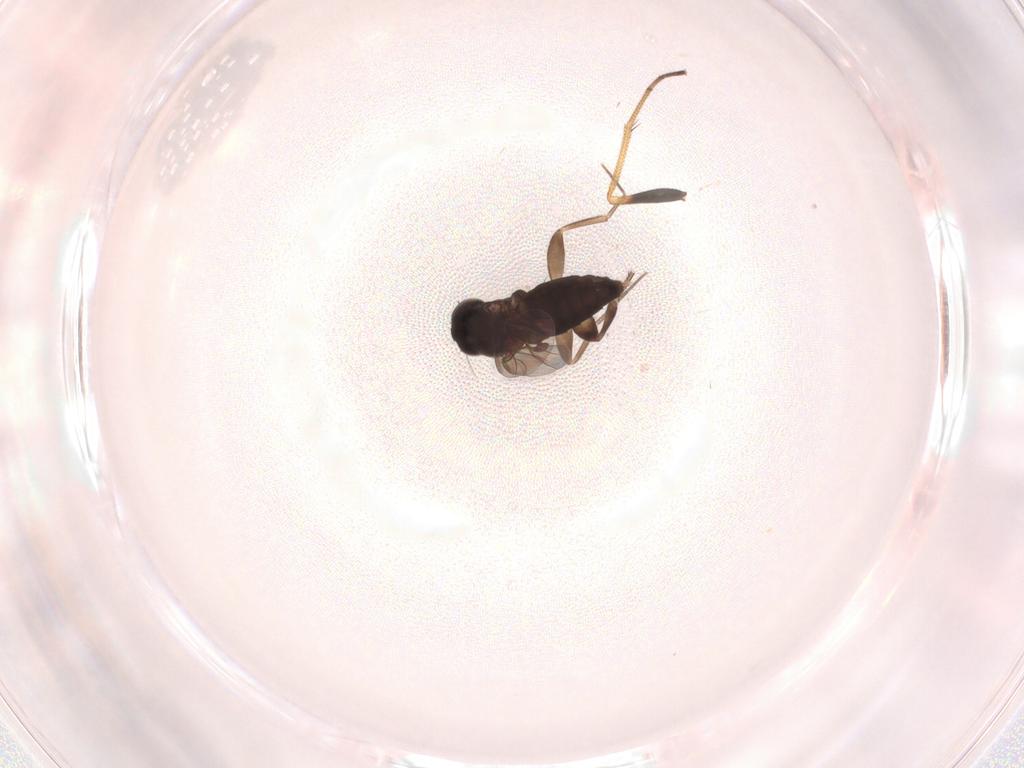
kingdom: Animalia
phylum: Arthropoda
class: Insecta
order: Diptera
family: Phoridae
